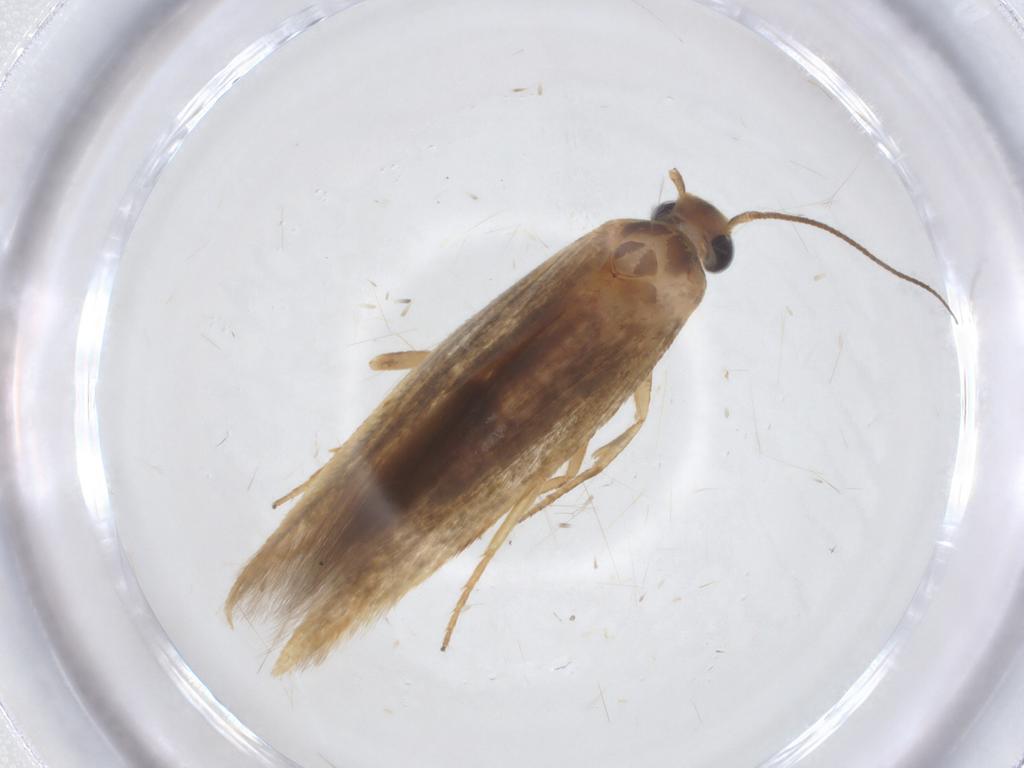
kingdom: Animalia
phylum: Arthropoda
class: Insecta
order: Lepidoptera
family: Stathmopodidae
